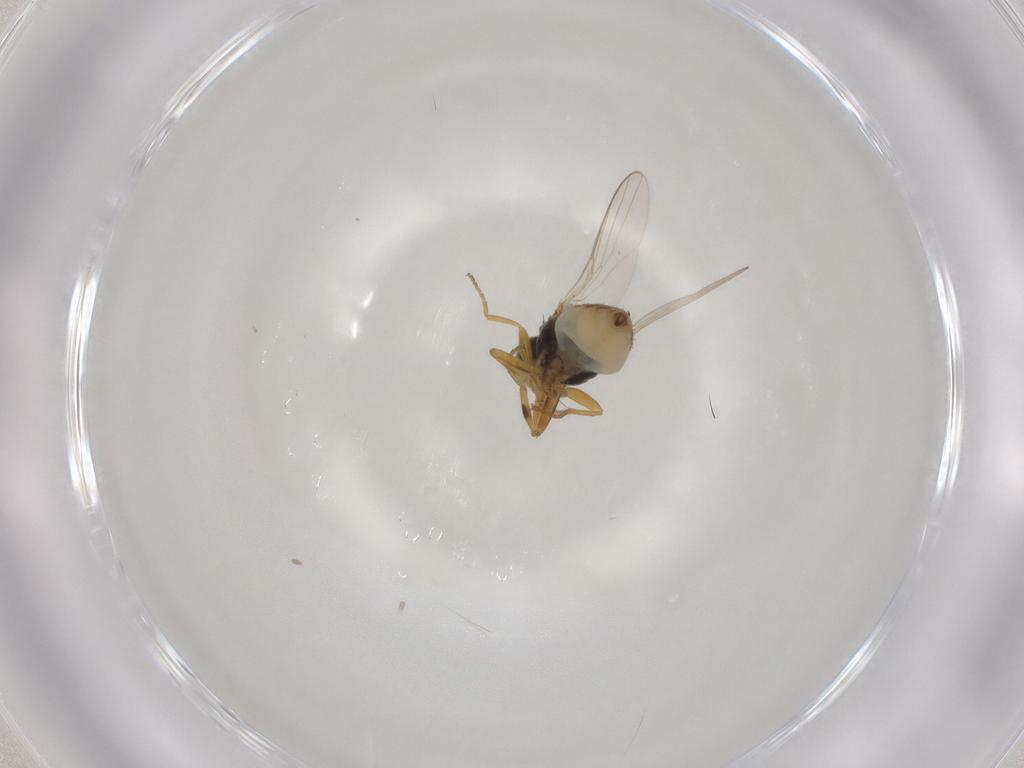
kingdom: Animalia
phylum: Arthropoda
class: Insecta
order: Diptera
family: Chloropidae
